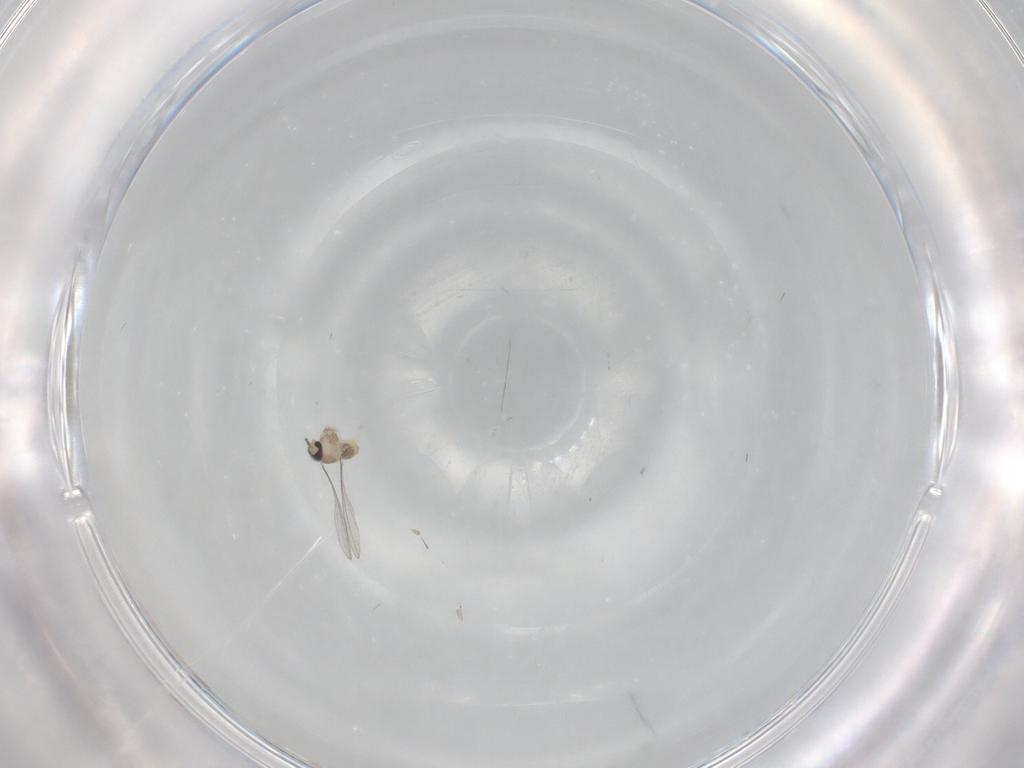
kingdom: Animalia
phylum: Arthropoda
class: Insecta
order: Diptera
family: Cecidomyiidae
